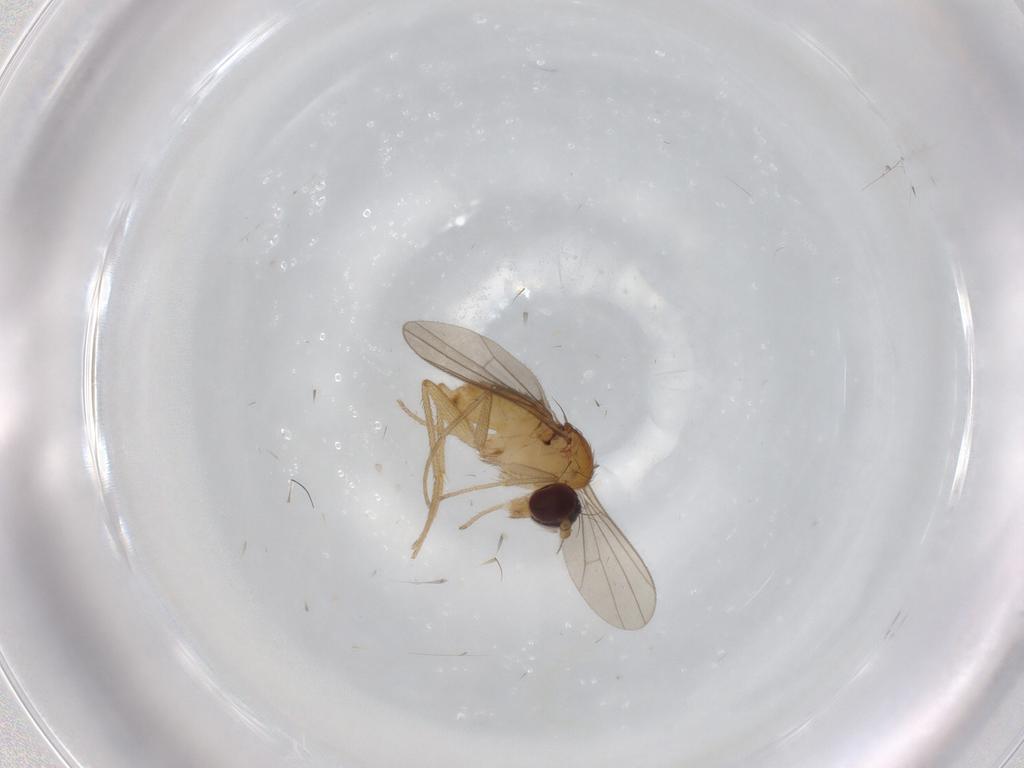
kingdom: Animalia
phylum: Arthropoda
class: Insecta
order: Diptera
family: Dolichopodidae
